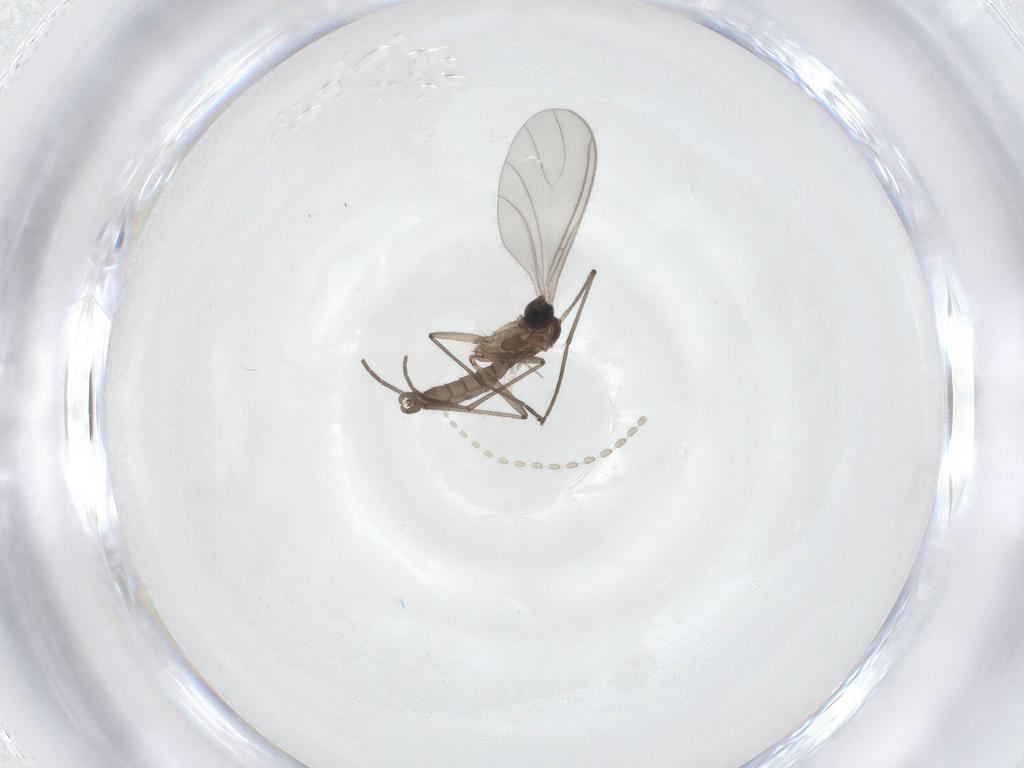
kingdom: Animalia
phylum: Arthropoda
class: Insecta
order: Diptera
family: Sciaridae
